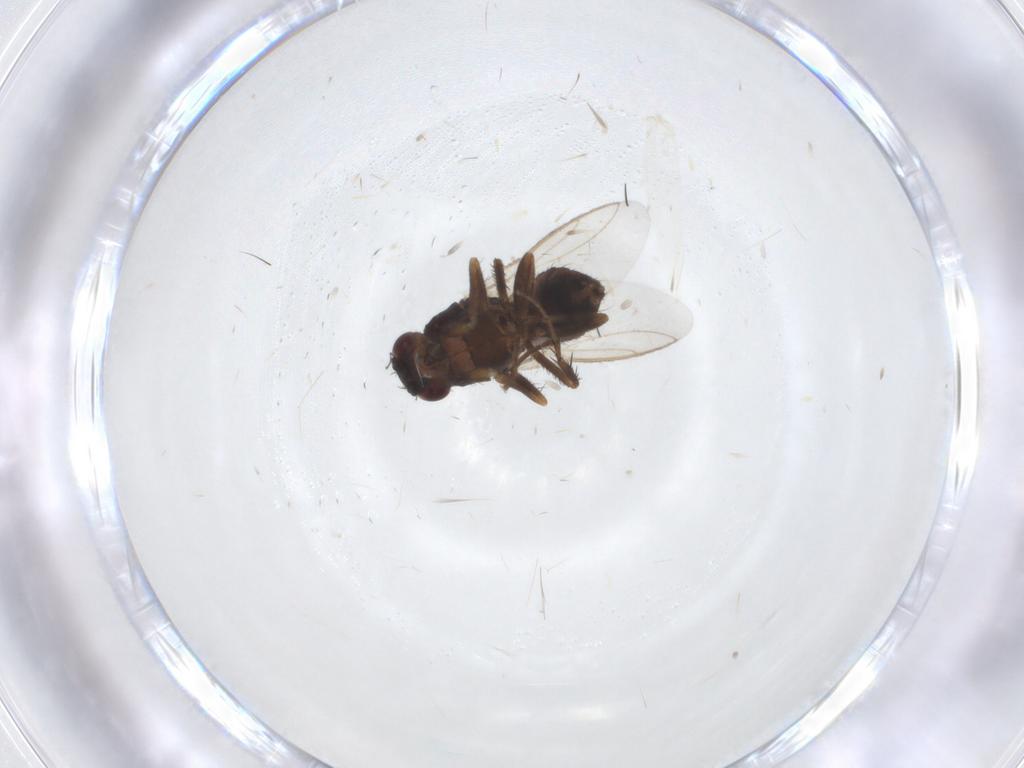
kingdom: Animalia
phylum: Arthropoda
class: Insecta
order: Diptera
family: Sphaeroceridae
